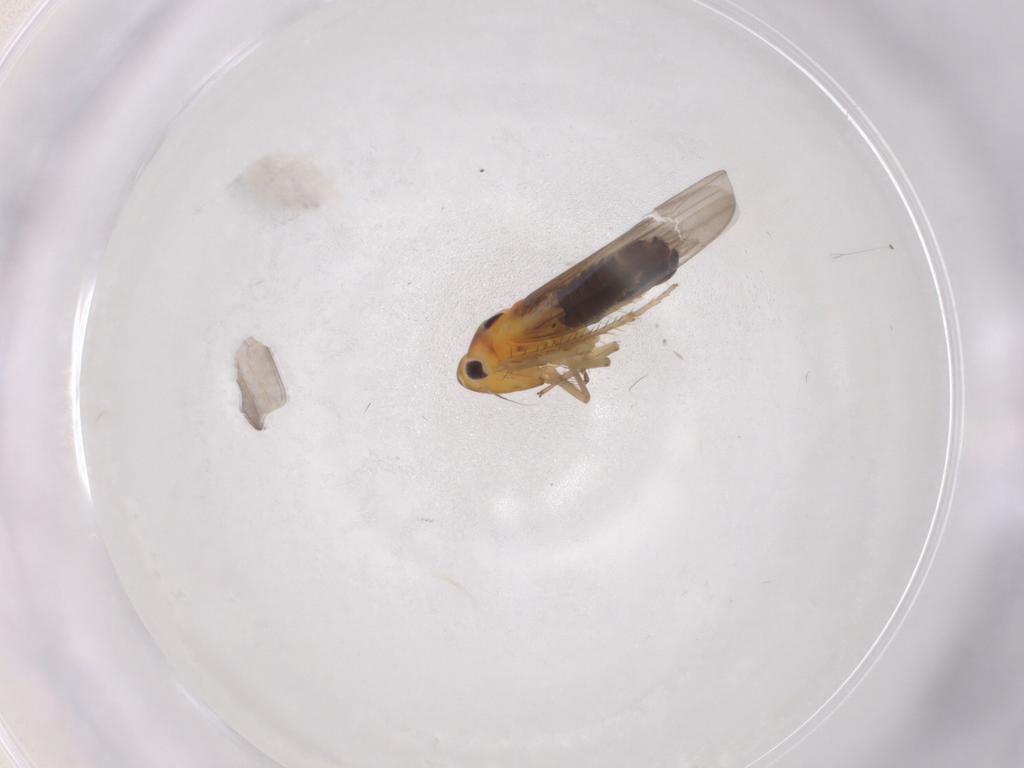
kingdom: Animalia
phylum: Arthropoda
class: Insecta
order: Hemiptera
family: Cicadellidae
